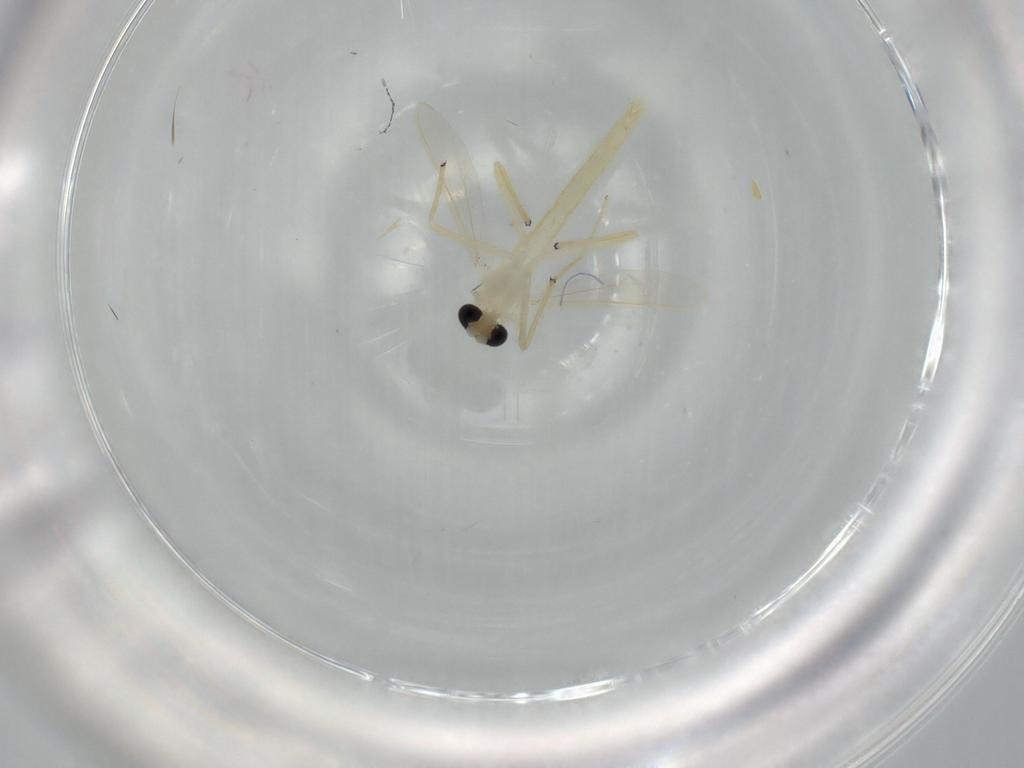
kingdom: Animalia
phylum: Arthropoda
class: Insecta
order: Diptera
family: Chironomidae
